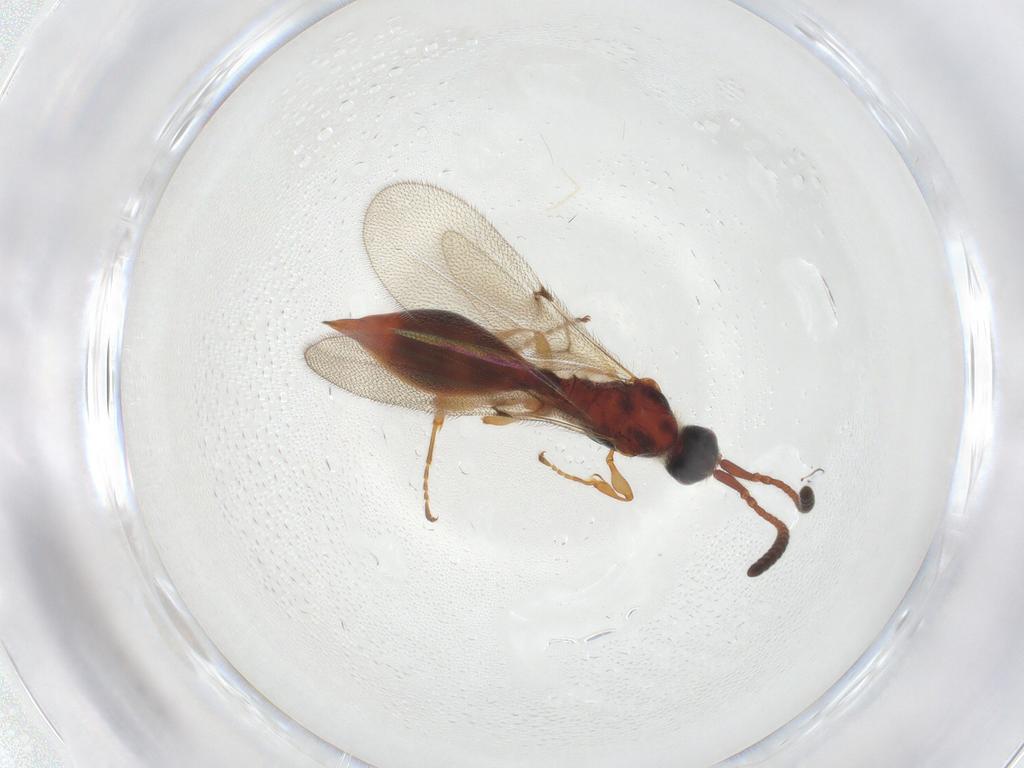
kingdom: Animalia
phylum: Arthropoda
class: Insecta
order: Hymenoptera
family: Diapriidae
